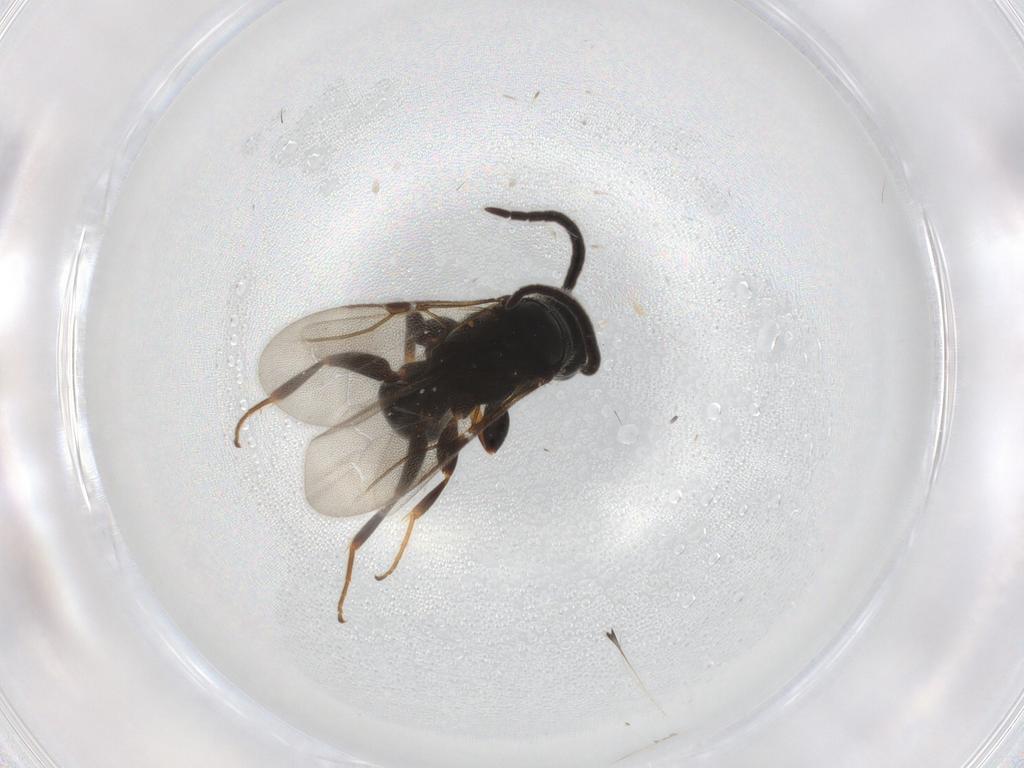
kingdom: Animalia
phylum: Arthropoda
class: Insecta
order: Hymenoptera
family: Bethylidae
